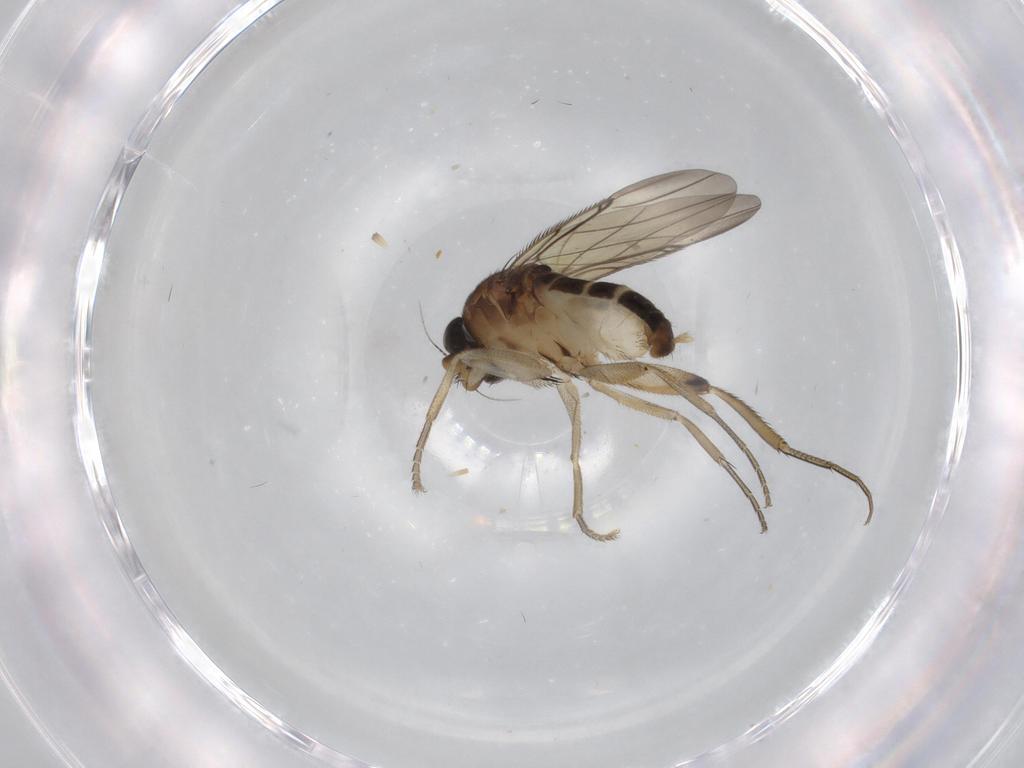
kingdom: Animalia
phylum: Arthropoda
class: Insecta
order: Diptera
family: Phoridae
